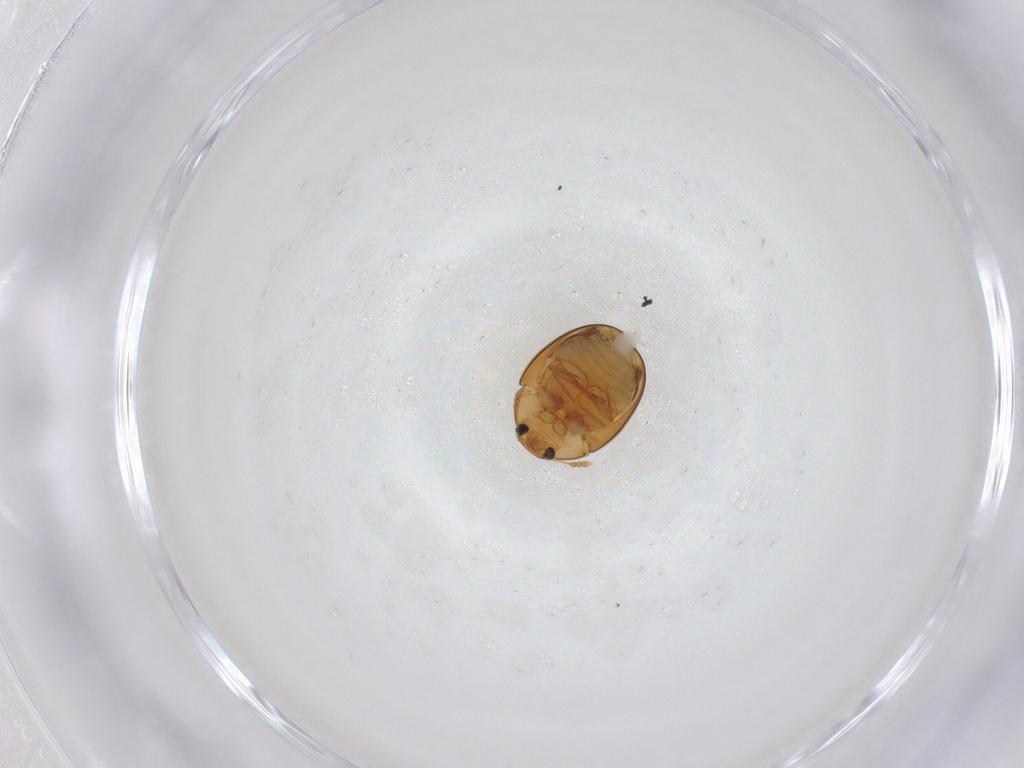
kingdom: Animalia
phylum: Arthropoda
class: Insecta
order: Coleoptera
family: Corylophidae
